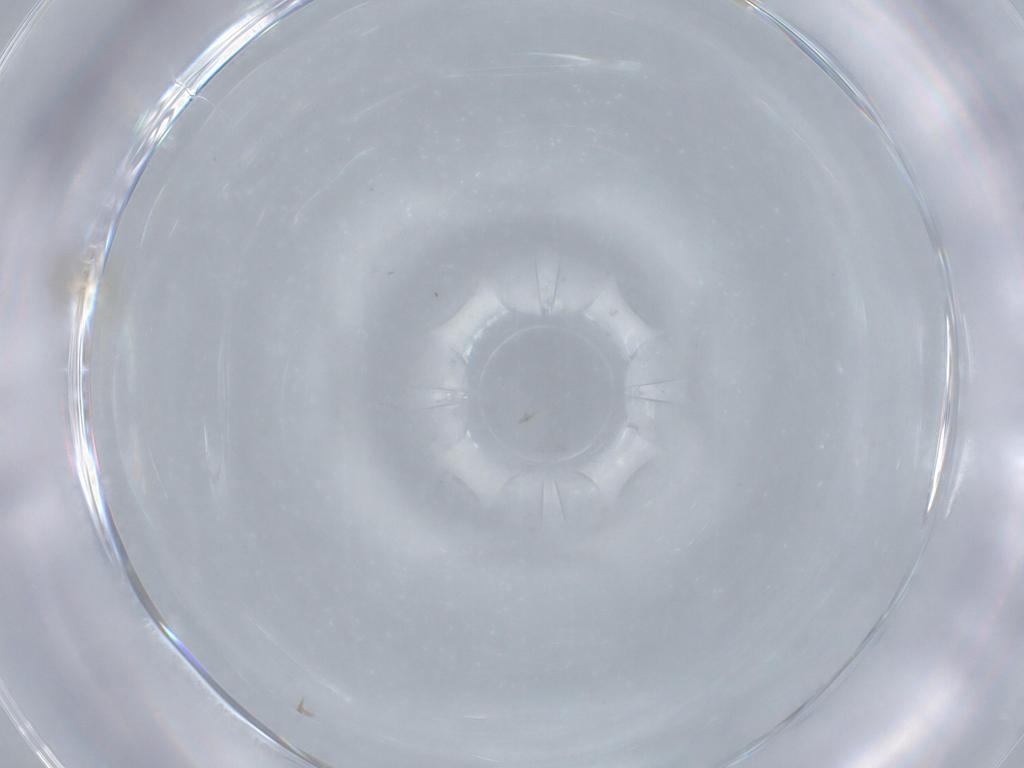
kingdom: Animalia
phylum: Arthropoda
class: Insecta
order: Hymenoptera
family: Aphelinidae
